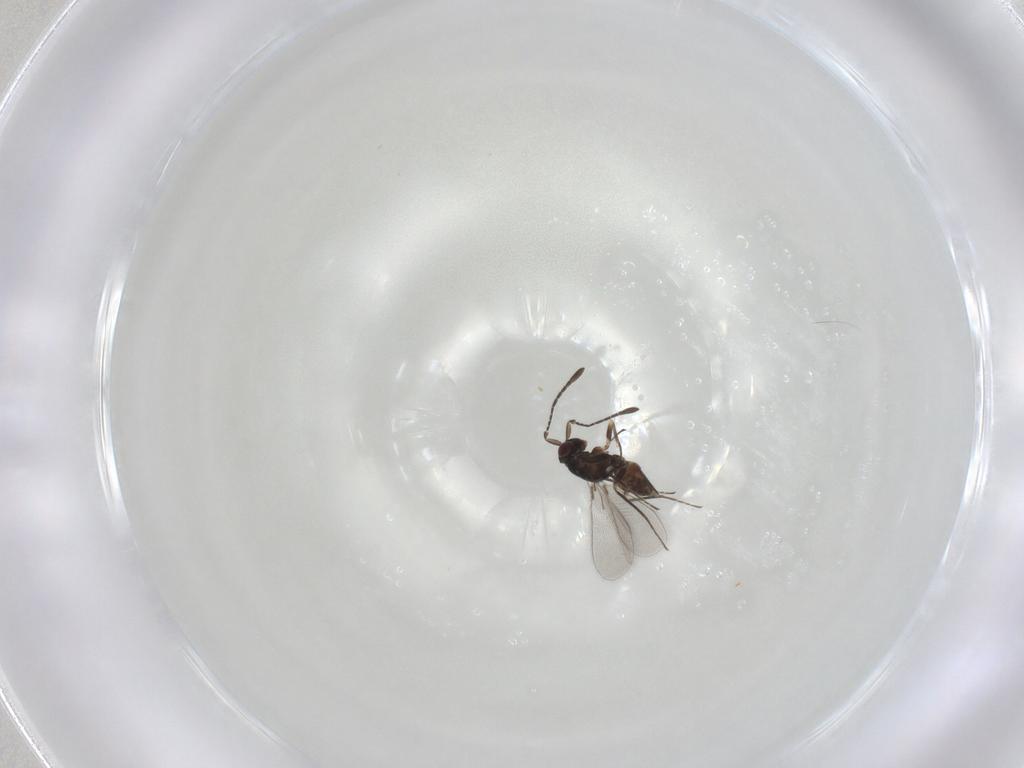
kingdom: Animalia
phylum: Arthropoda
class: Insecta
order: Hymenoptera
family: Mymaridae
